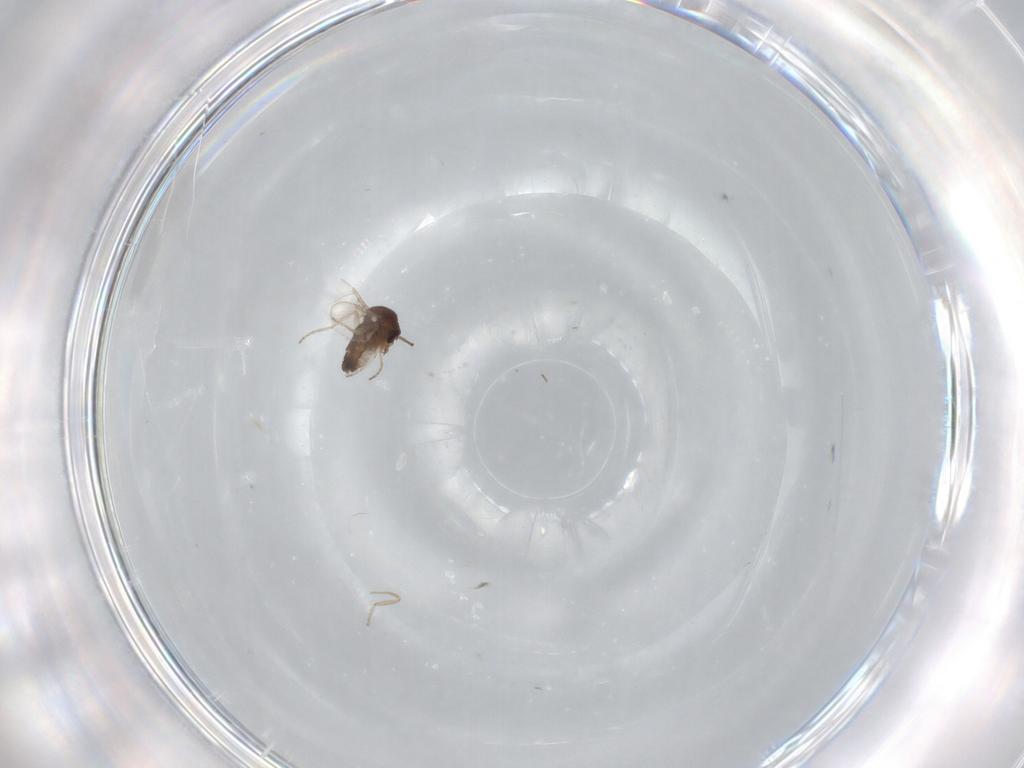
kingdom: Animalia
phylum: Arthropoda
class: Insecta
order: Diptera
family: Ceratopogonidae
